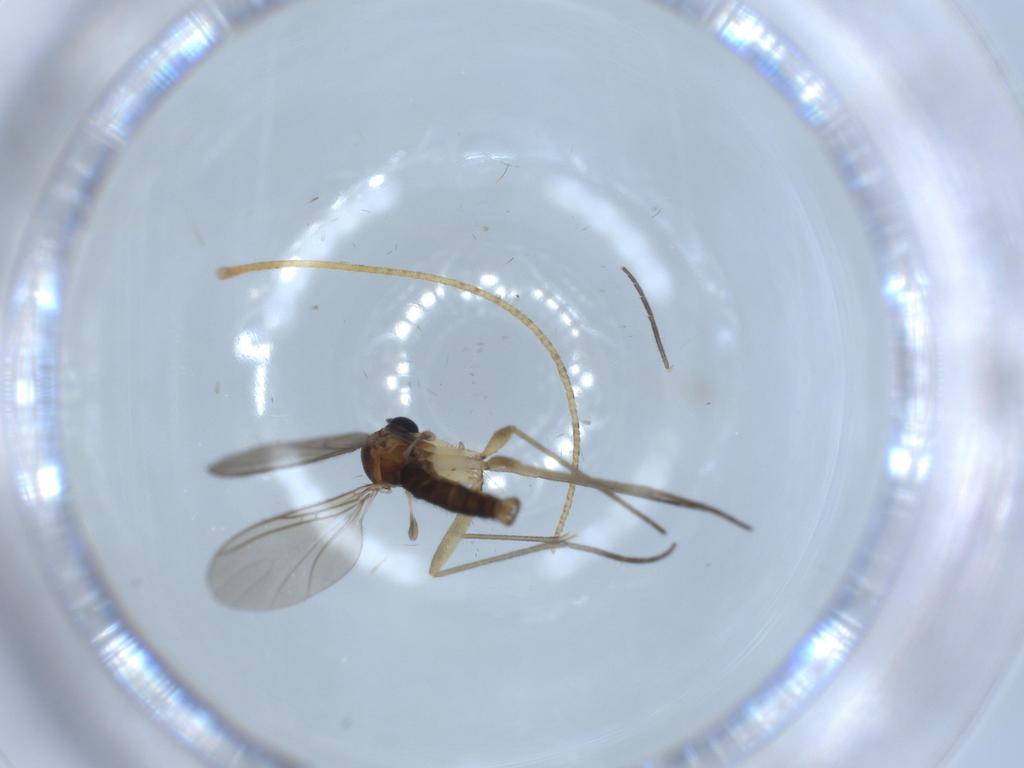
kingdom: Animalia
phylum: Arthropoda
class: Insecta
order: Diptera
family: Sciaridae
